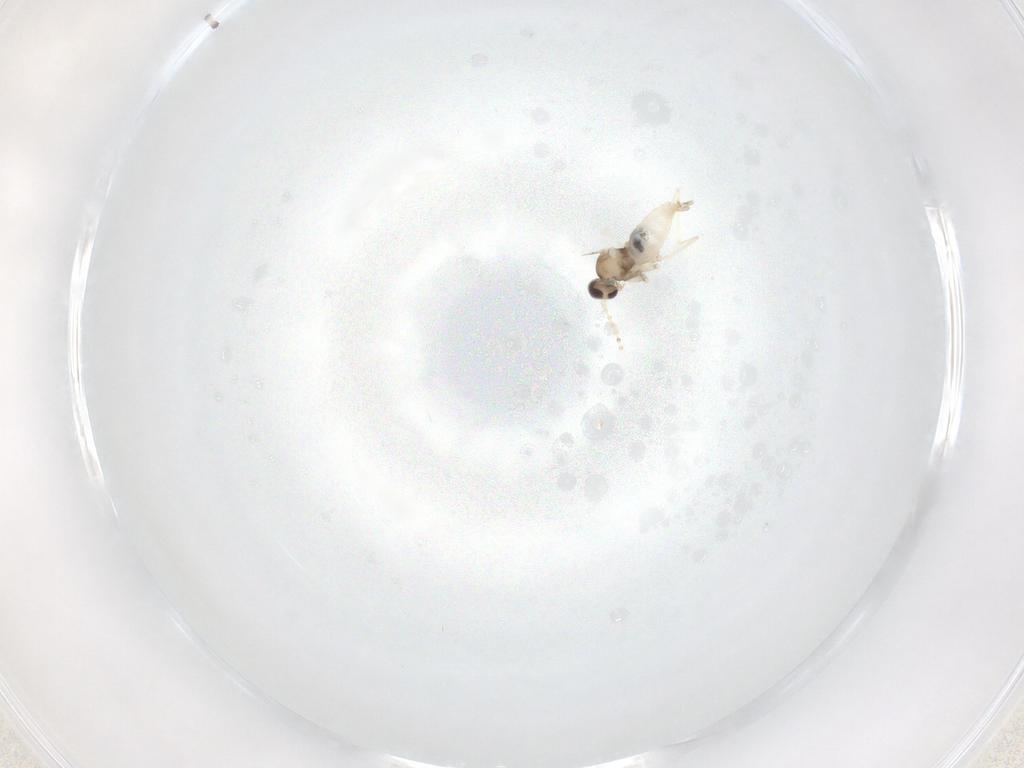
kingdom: Animalia
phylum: Arthropoda
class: Insecta
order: Diptera
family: Cecidomyiidae
